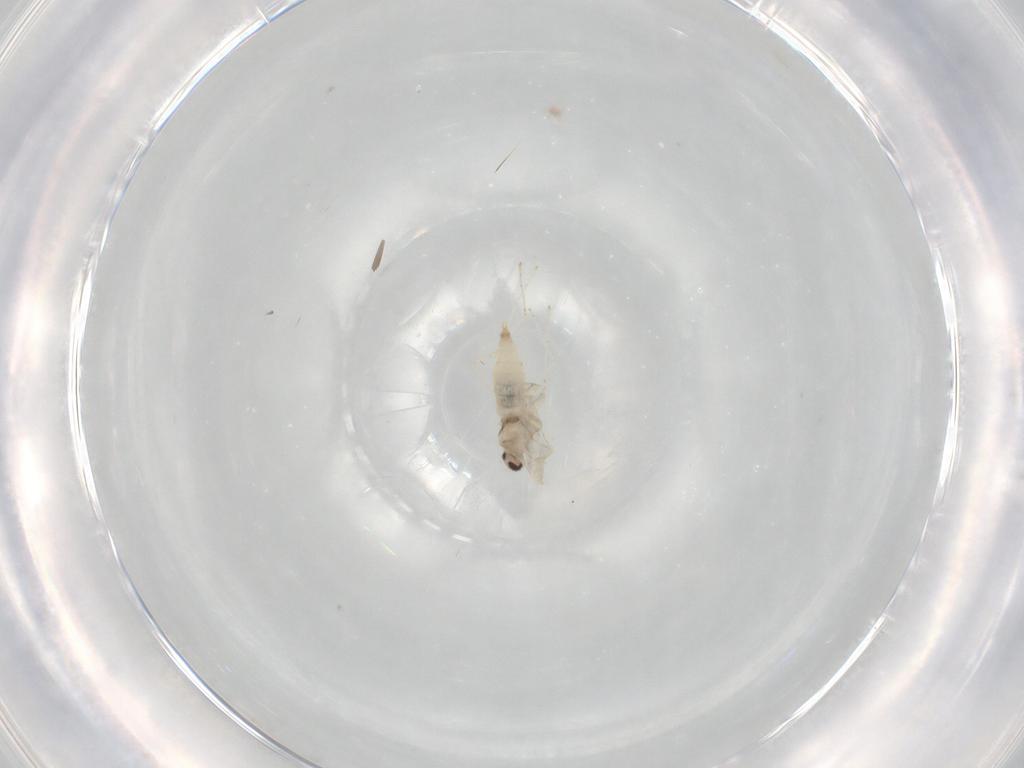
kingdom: Animalia
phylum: Arthropoda
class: Insecta
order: Diptera
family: Cecidomyiidae
